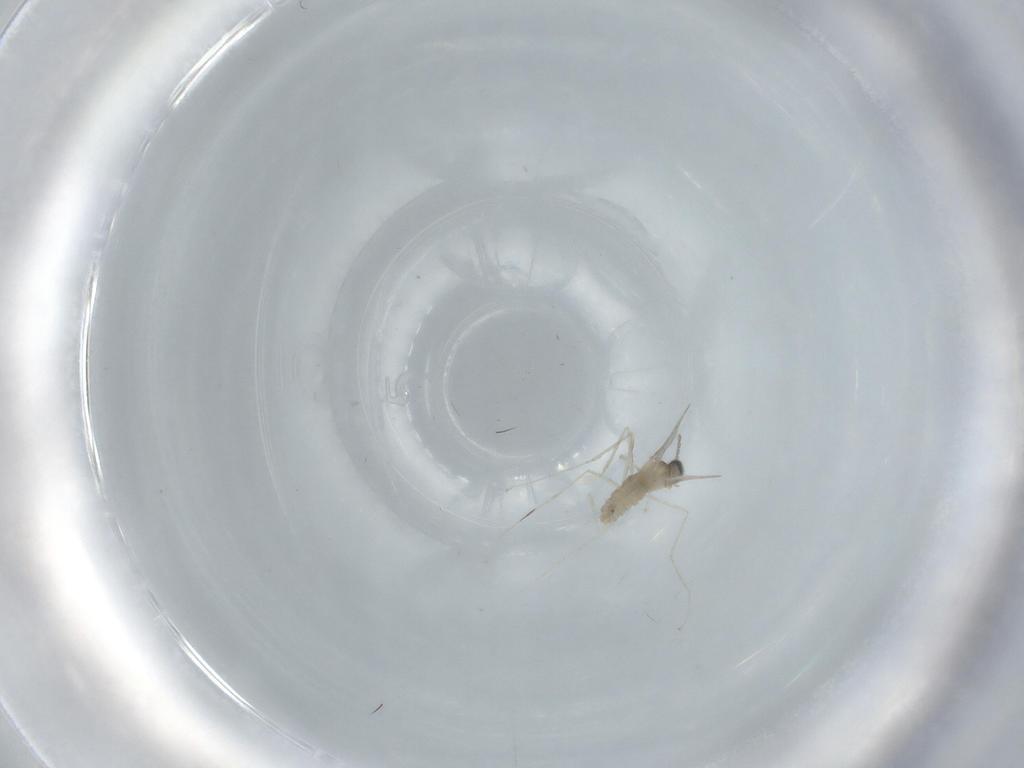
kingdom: Animalia
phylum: Arthropoda
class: Insecta
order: Diptera
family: Cecidomyiidae
